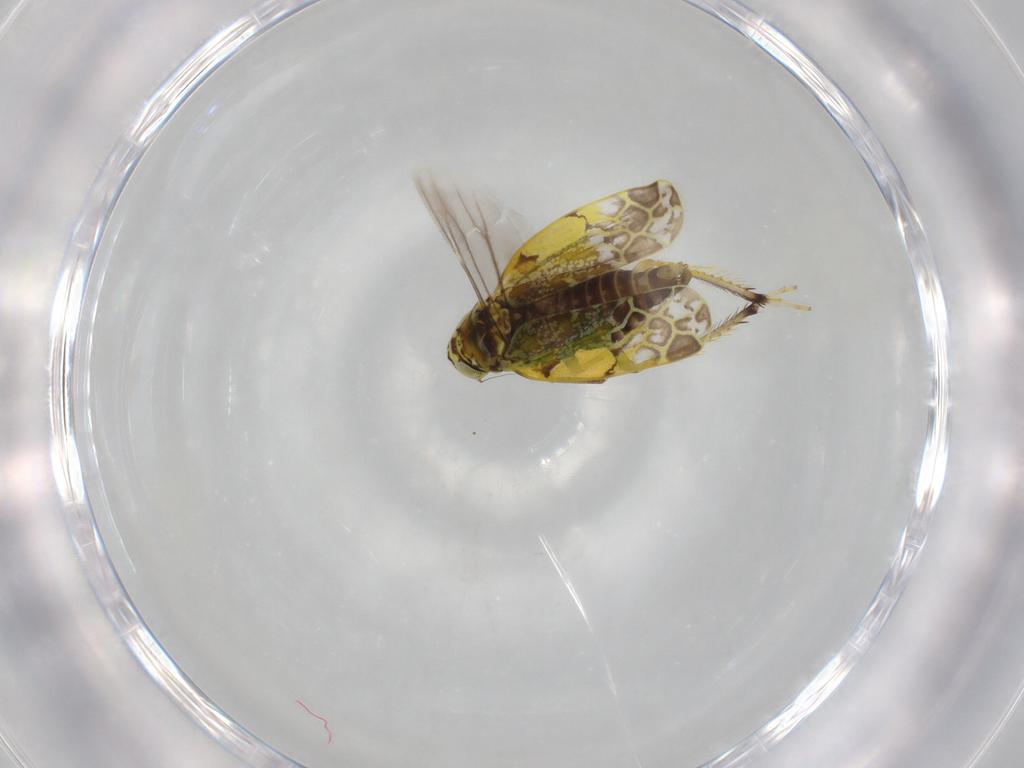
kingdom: Animalia
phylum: Arthropoda
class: Insecta
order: Hemiptera
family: Cicadellidae
